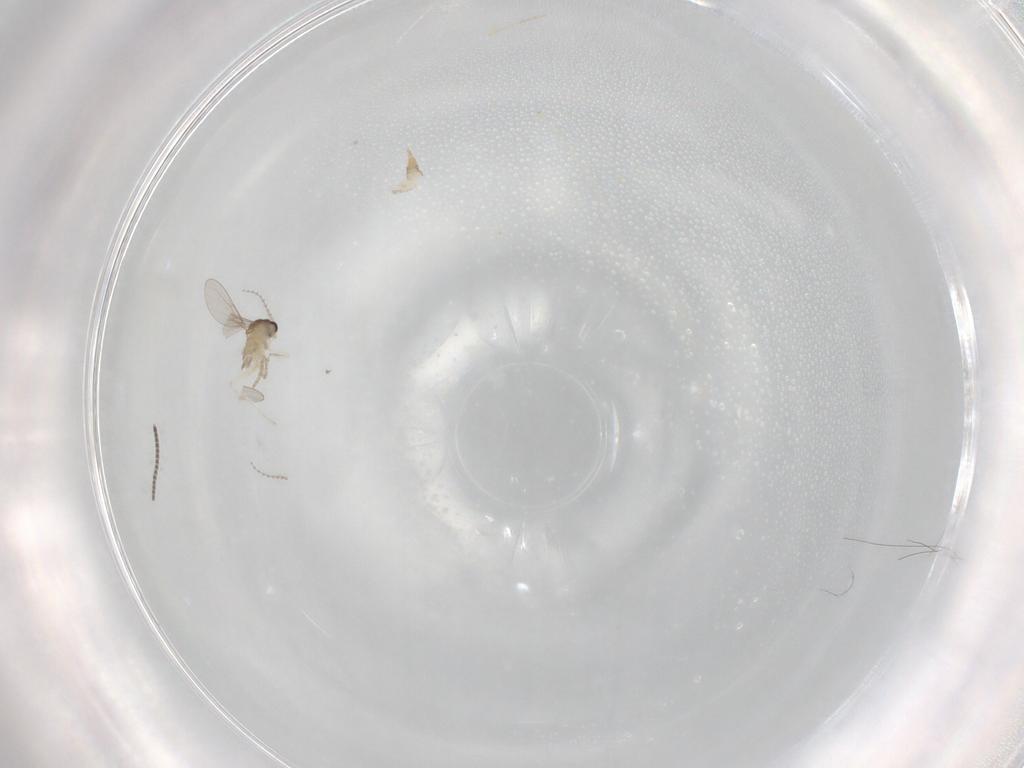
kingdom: Animalia
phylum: Arthropoda
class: Insecta
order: Diptera
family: Cecidomyiidae
